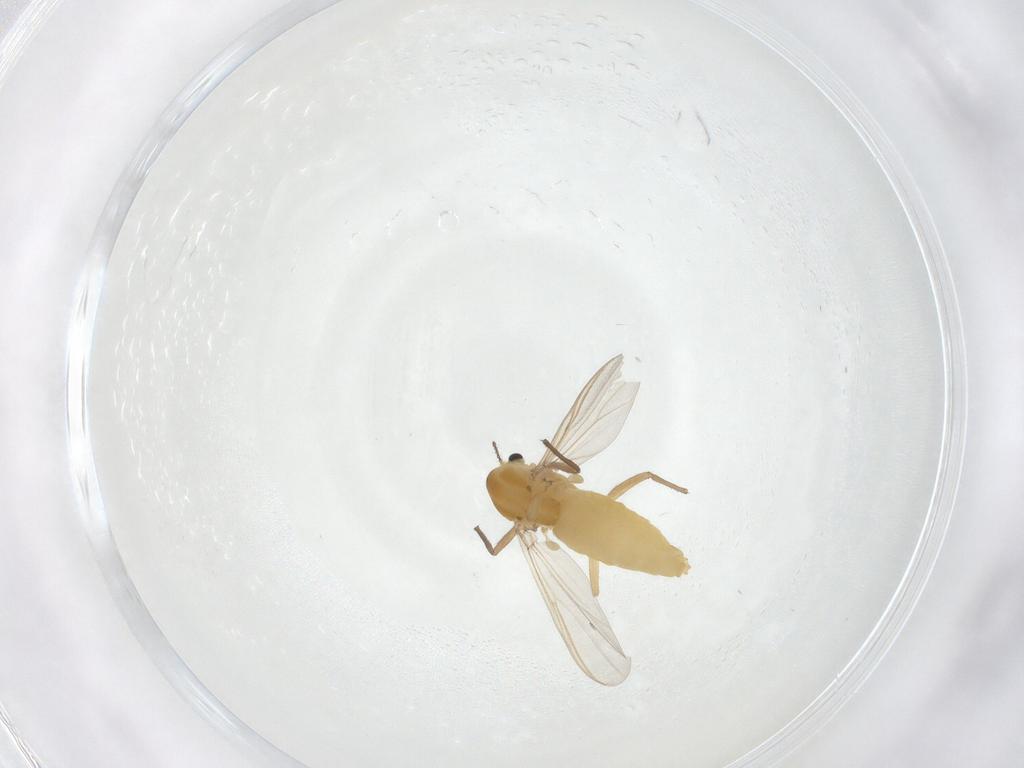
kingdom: Animalia
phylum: Arthropoda
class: Insecta
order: Diptera
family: Chironomidae
